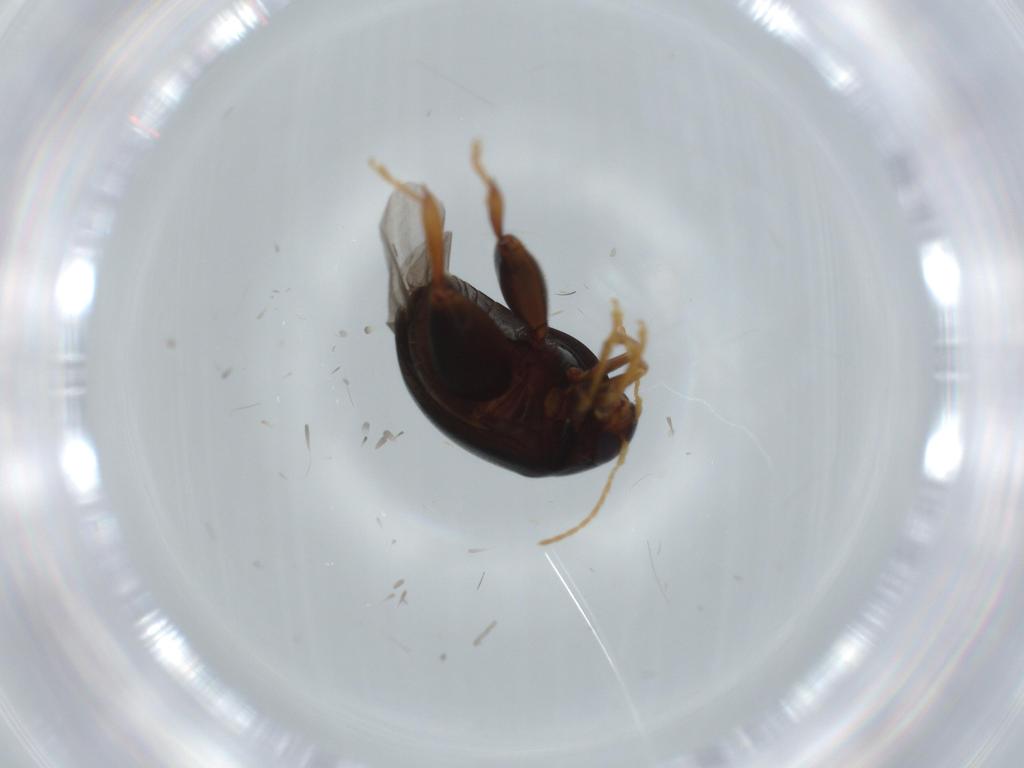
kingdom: Animalia
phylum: Arthropoda
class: Insecta
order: Coleoptera
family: Chrysomelidae
